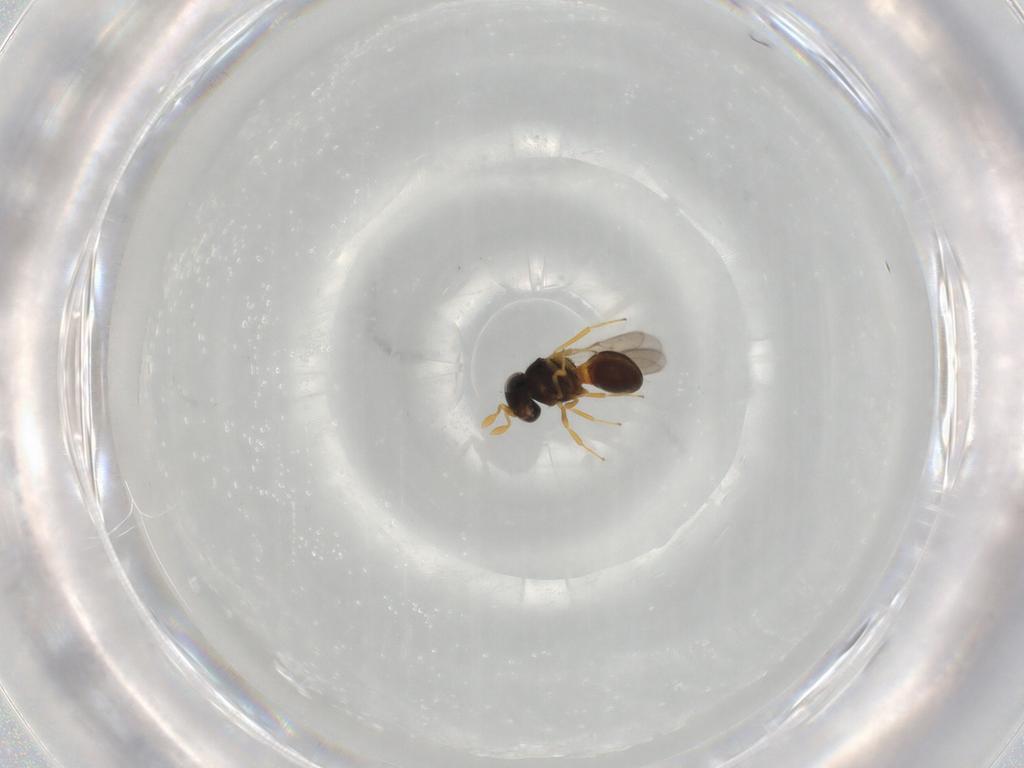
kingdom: Animalia
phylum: Arthropoda
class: Insecta
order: Hymenoptera
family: Scelionidae
